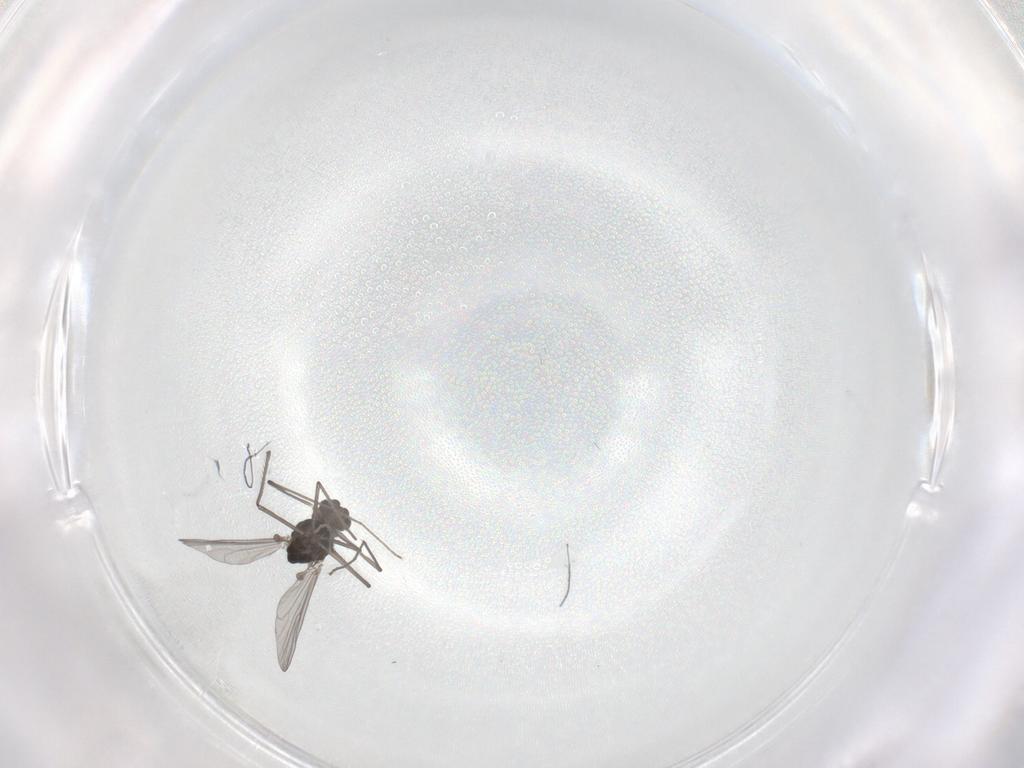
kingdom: Animalia
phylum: Arthropoda
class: Insecta
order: Diptera
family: Chironomidae
